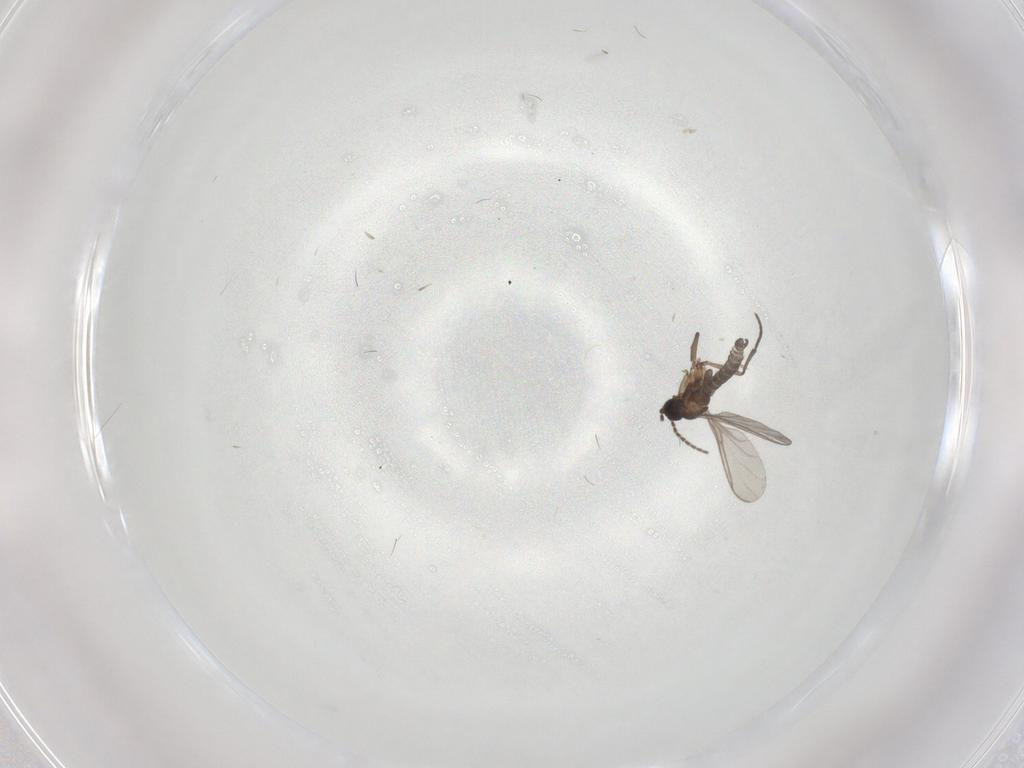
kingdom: Animalia
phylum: Arthropoda
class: Insecta
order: Diptera
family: Sciaridae
